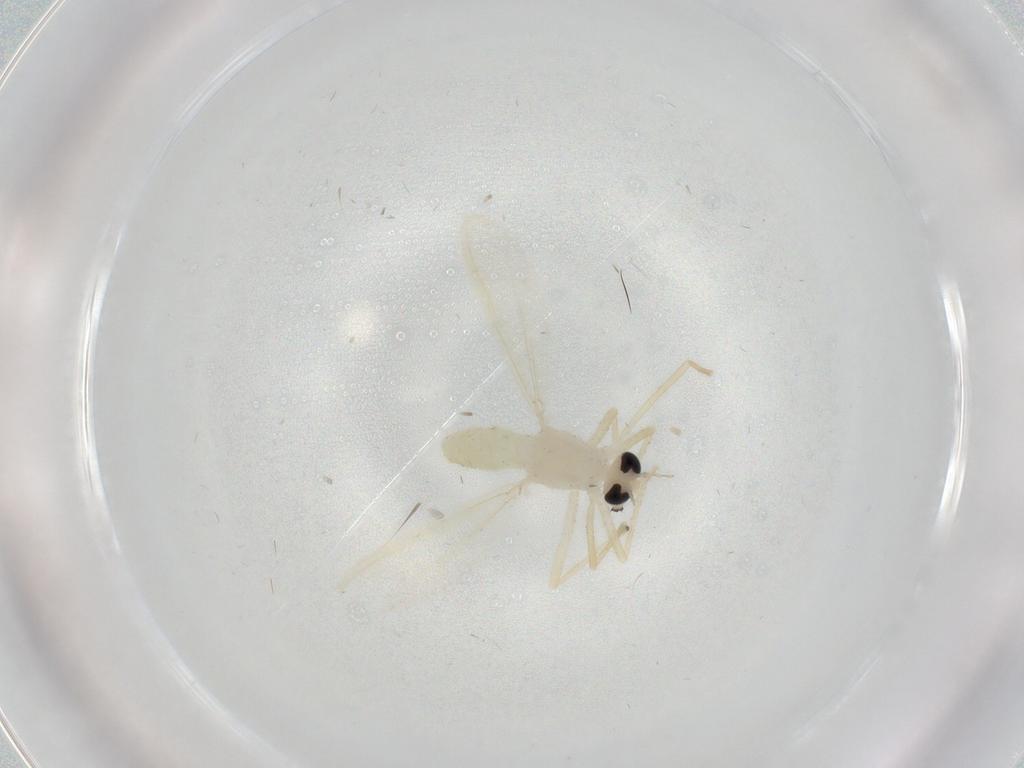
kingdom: Animalia
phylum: Arthropoda
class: Insecta
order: Diptera
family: Chironomidae
